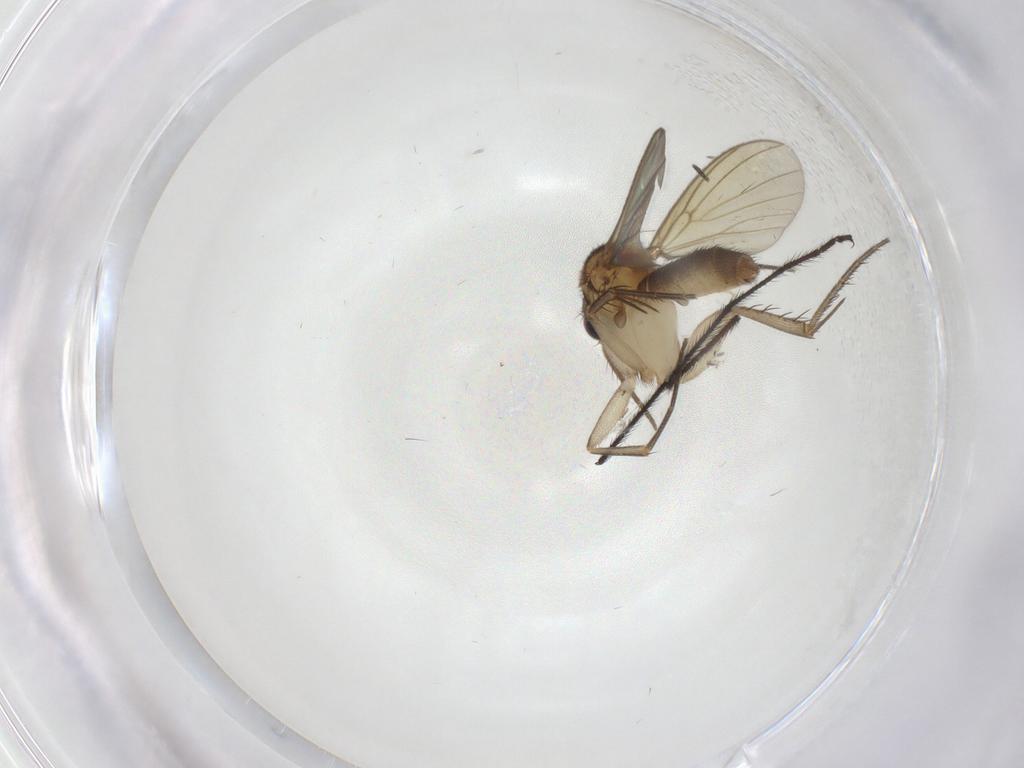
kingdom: Animalia
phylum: Arthropoda
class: Insecta
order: Diptera
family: Mycetophilidae
